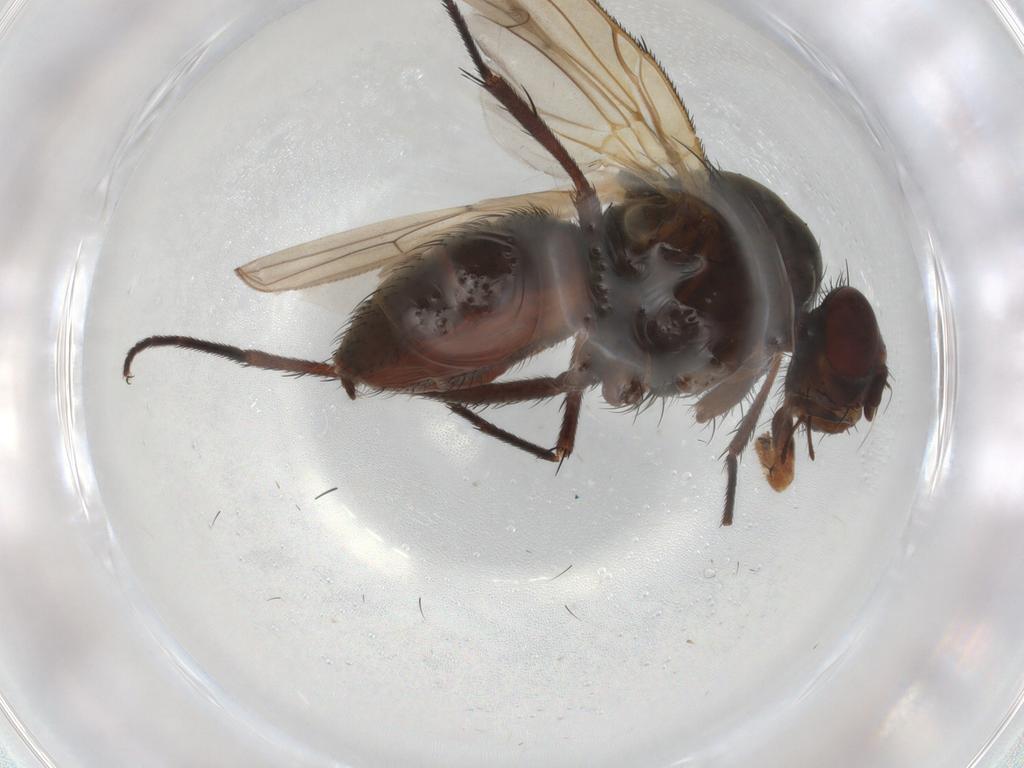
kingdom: Animalia
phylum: Arthropoda
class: Insecta
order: Diptera
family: Anthomyiidae
